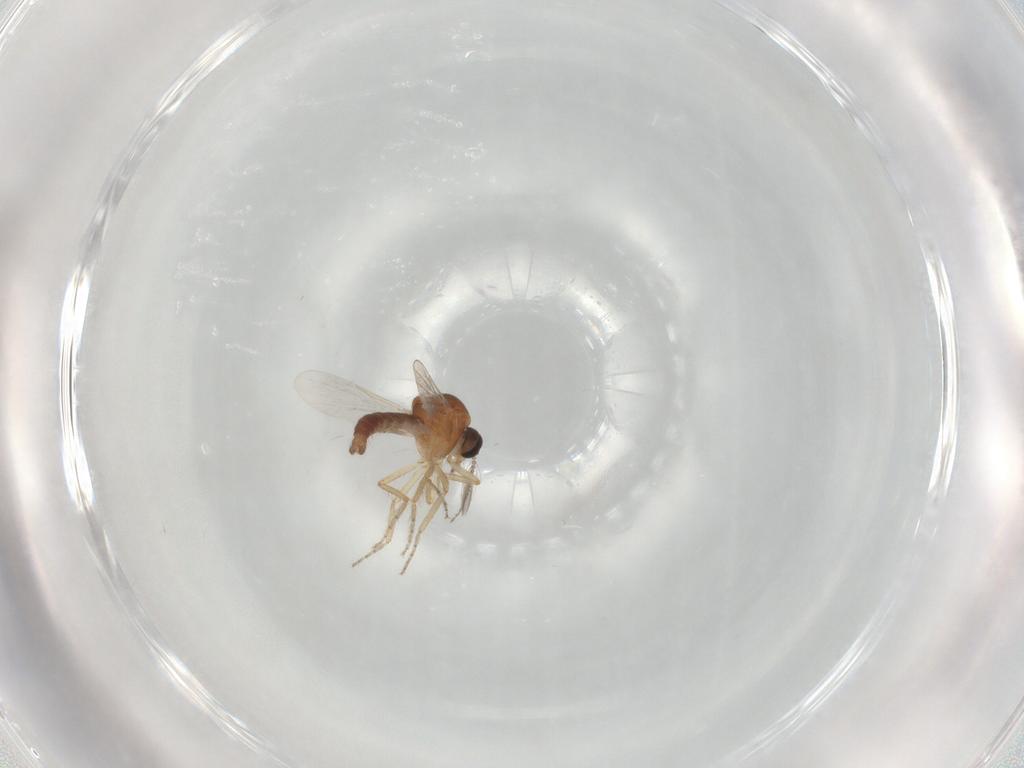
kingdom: Animalia
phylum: Arthropoda
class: Insecta
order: Diptera
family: Ceratopogonidae
